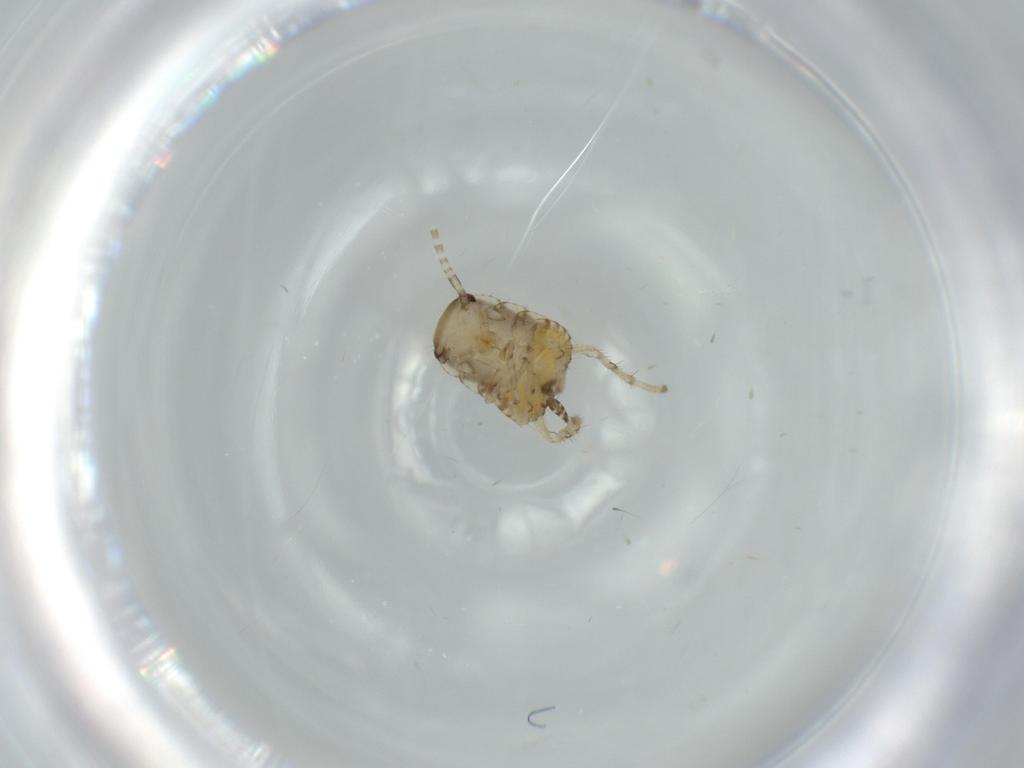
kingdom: Animalia
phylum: Arthropoda
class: Insecta
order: Blattodea
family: Ectobiidae
